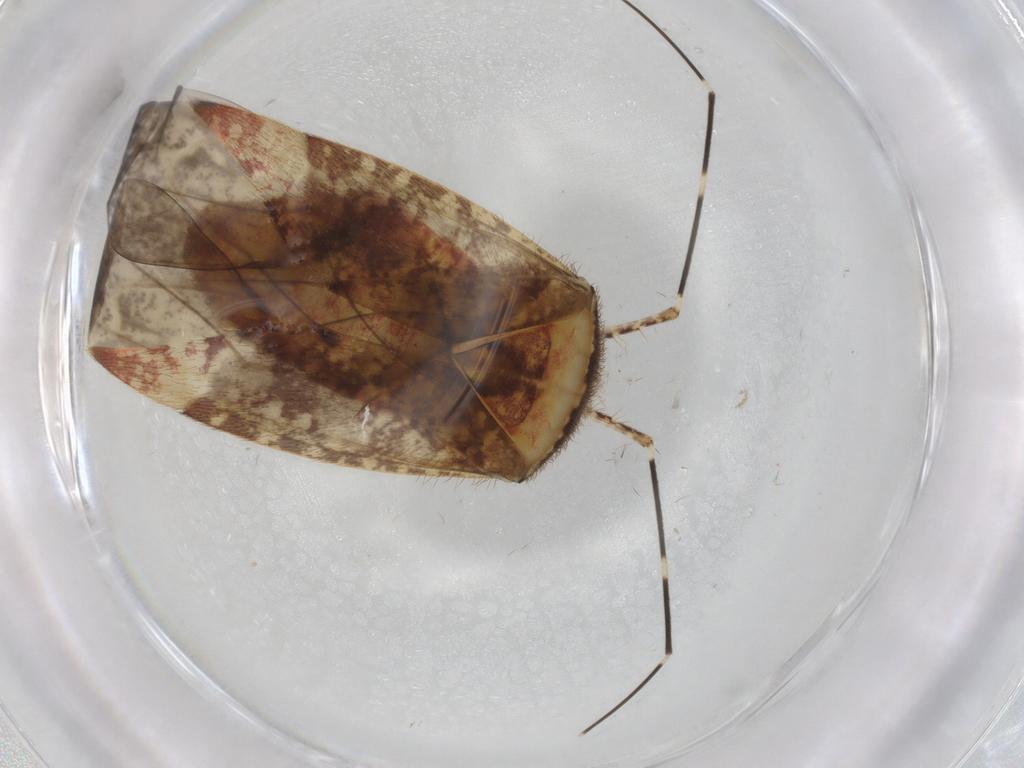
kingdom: Animalia
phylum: Arthropoda
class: Insecta
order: Hemiptera
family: Miridae
